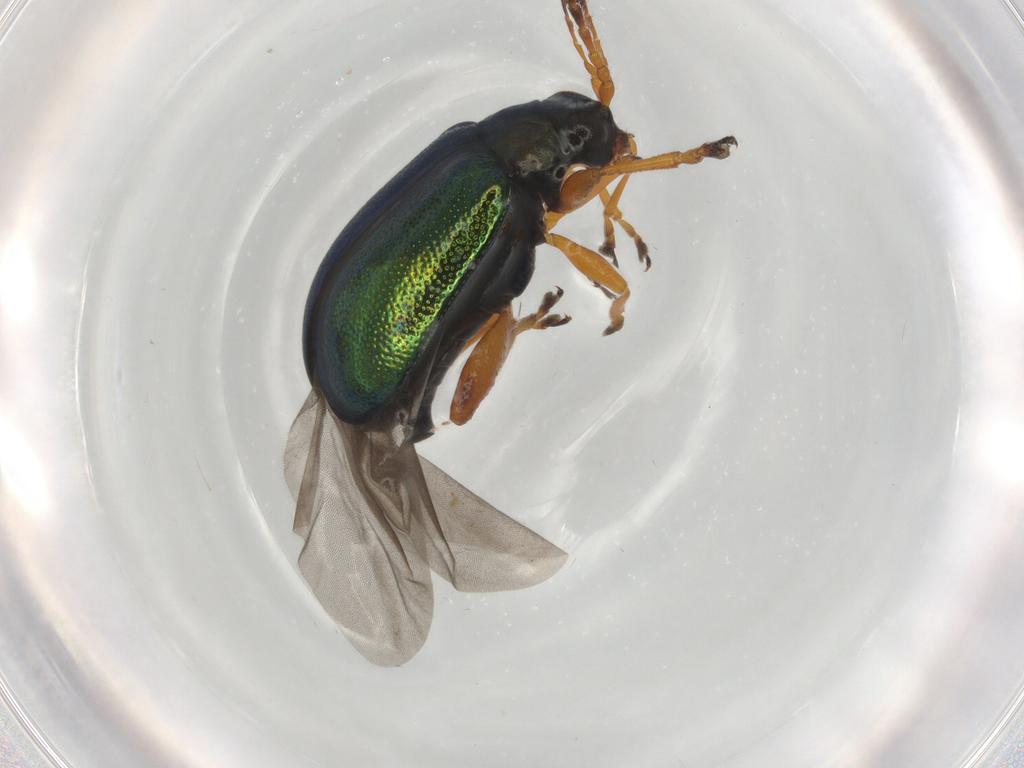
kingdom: Animalia
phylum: Arthropoda
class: Insecta
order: Coleoptera
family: Chrysomelidae
